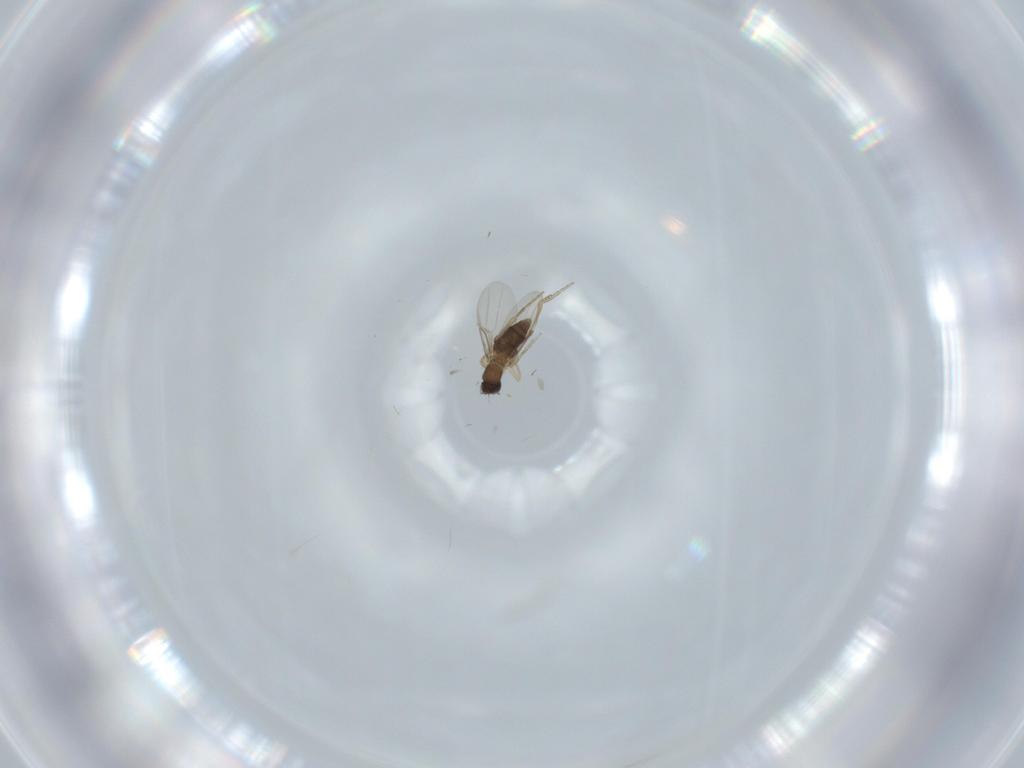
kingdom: Animalia
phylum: Arthropoda
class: Insecta
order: Diptera
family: Phoridae
